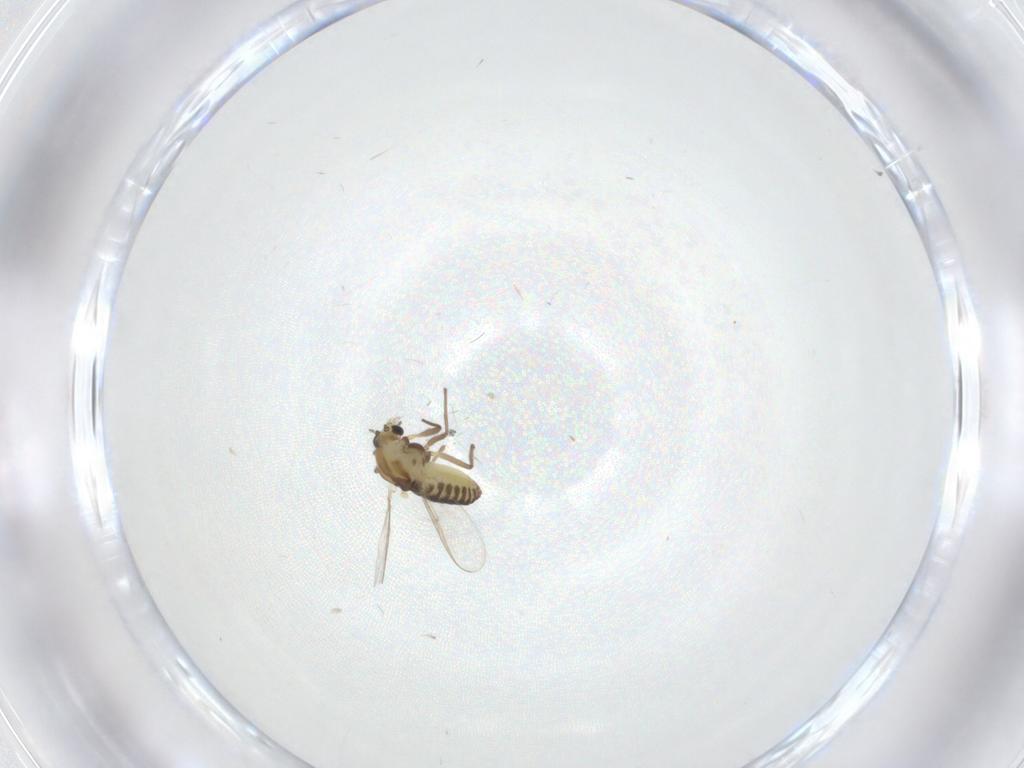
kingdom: Animalia
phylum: Arthropoda
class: Insecta
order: Diptera
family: Chironomidae
